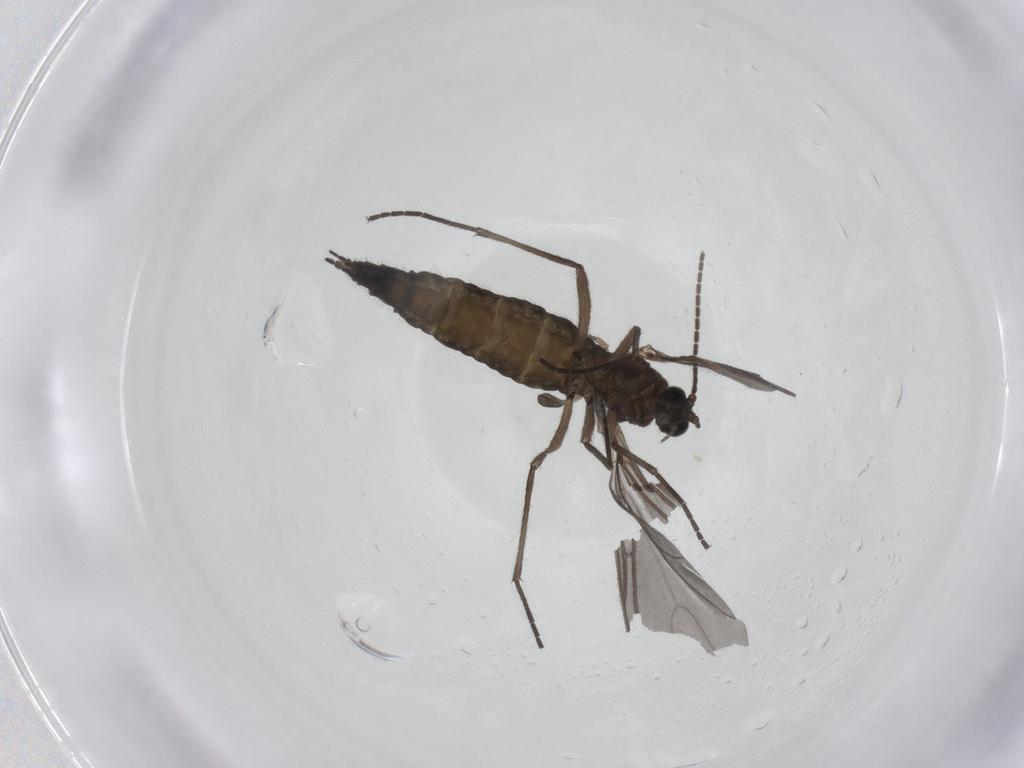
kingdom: Animalia
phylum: Arthropoda
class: Insecta
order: Diptera
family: Sciaridae
